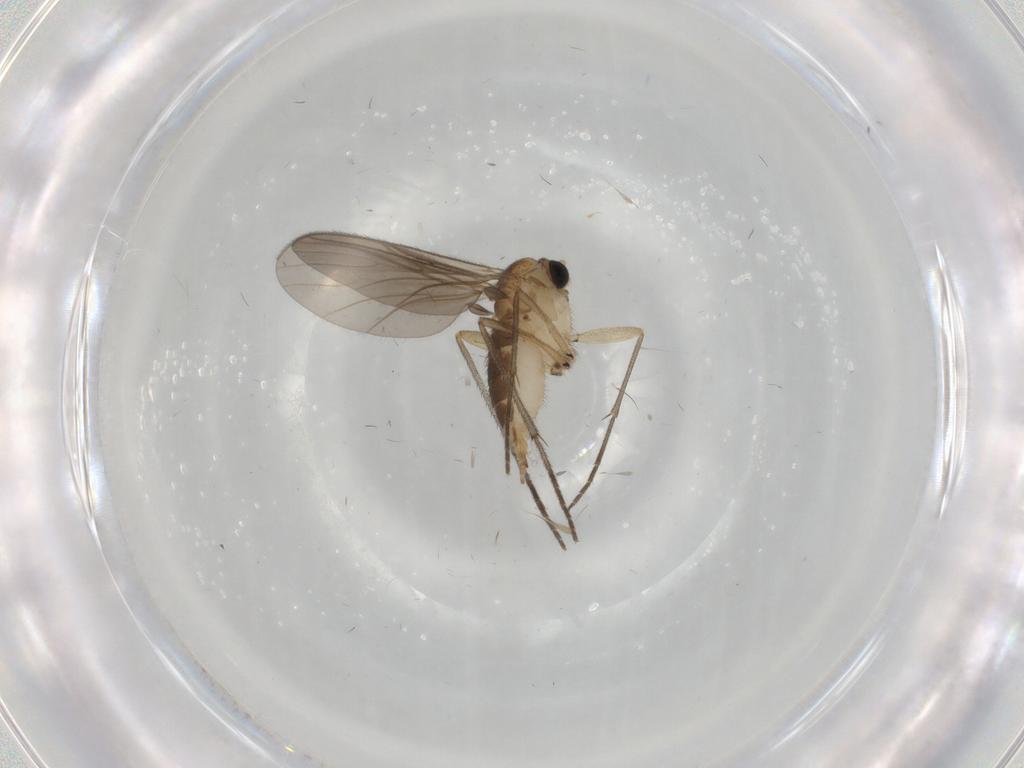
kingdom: Animalia
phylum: Arthropoda
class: Insecta
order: Diptera
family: Sciaridae
